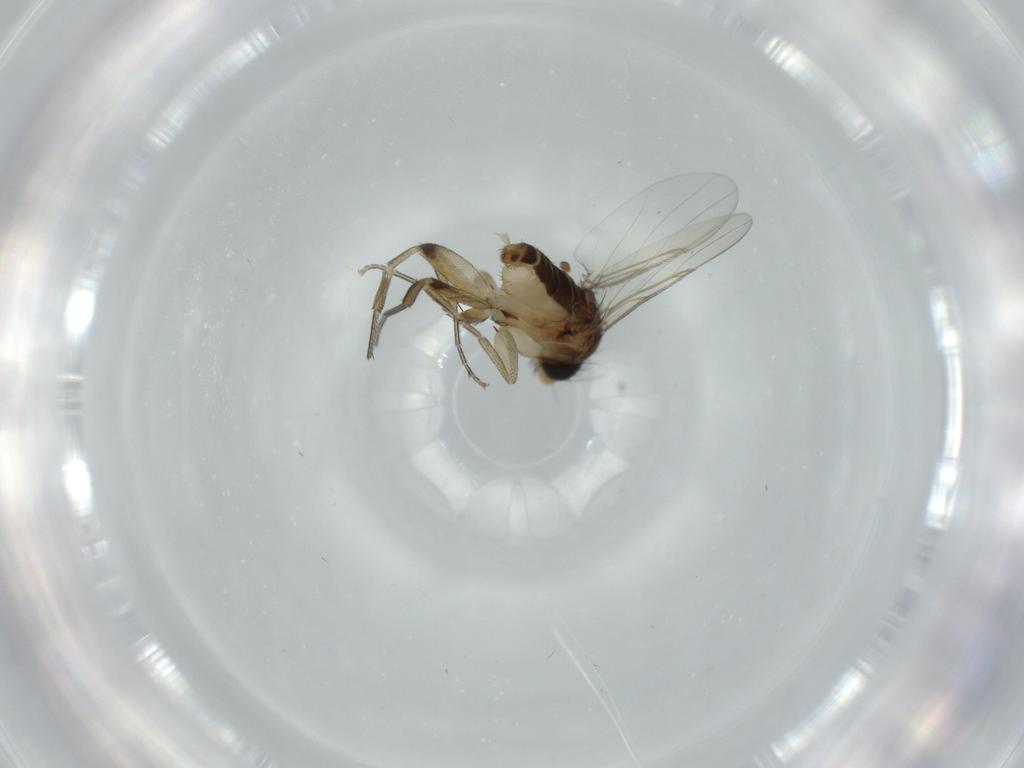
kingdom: Animalia
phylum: Arthropoda
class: Insecta
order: Diptera
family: Phoridae
